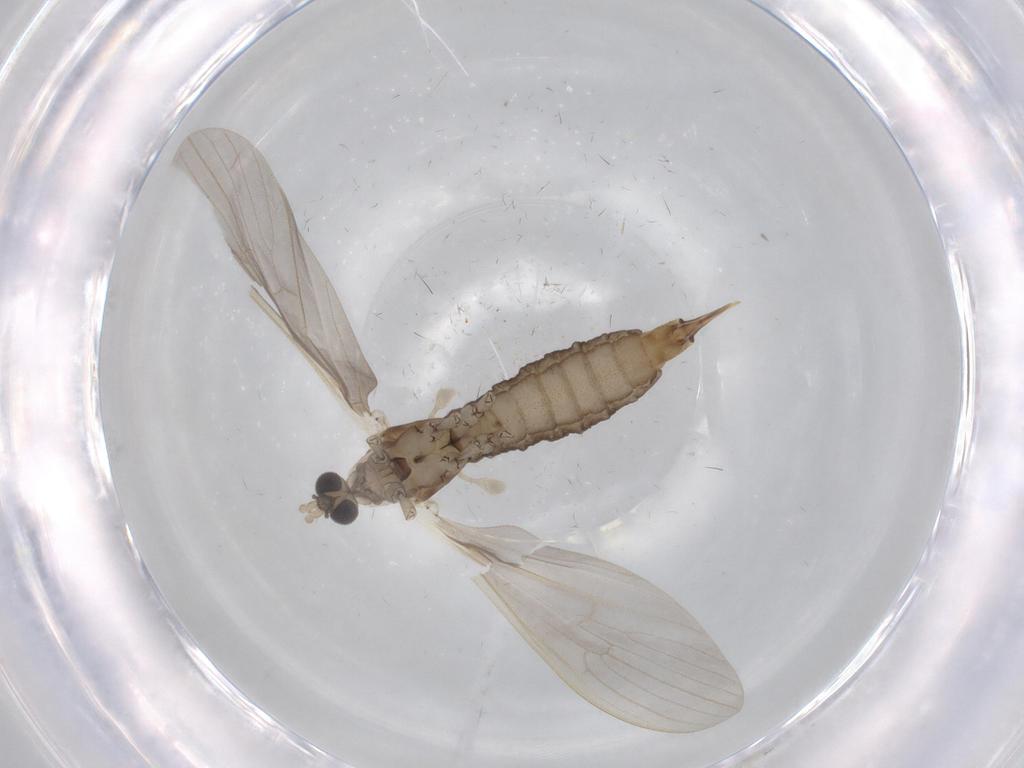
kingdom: Animalia
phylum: Arthropoda
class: Insecta
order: Diptera
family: Limoniidae
